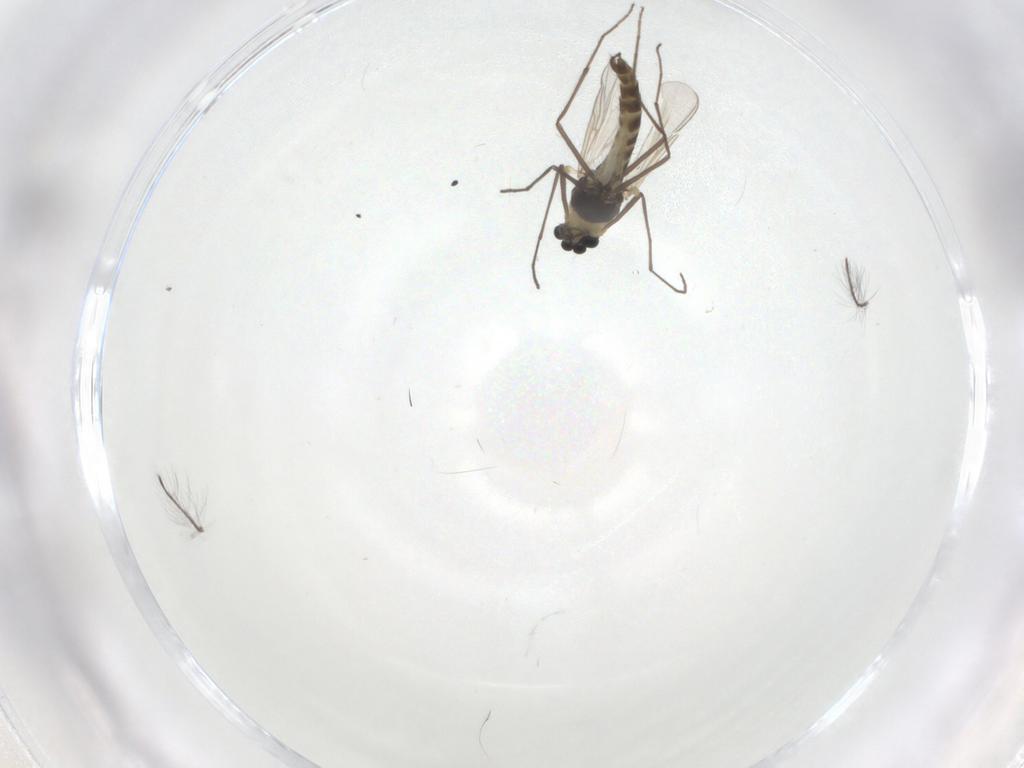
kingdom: Animalia
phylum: Arthropoda
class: Insecta
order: Diptera
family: Chironomidae
